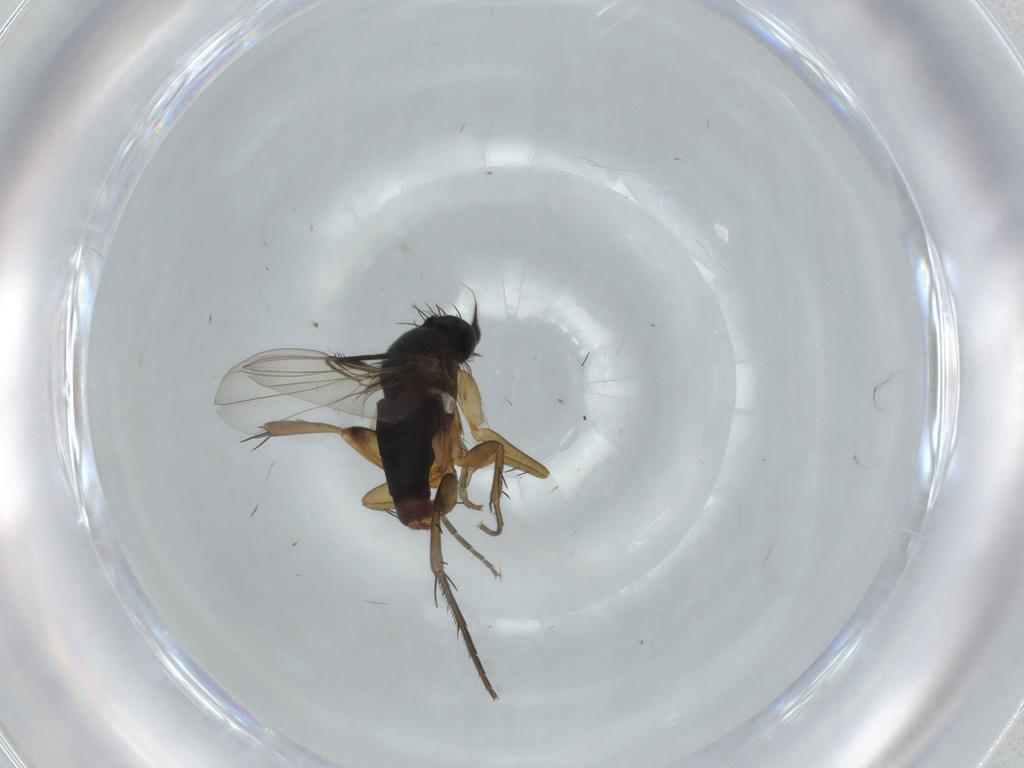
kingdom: Animalia
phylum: Arthropoda
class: Insecta
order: Diptera
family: Phoridae
